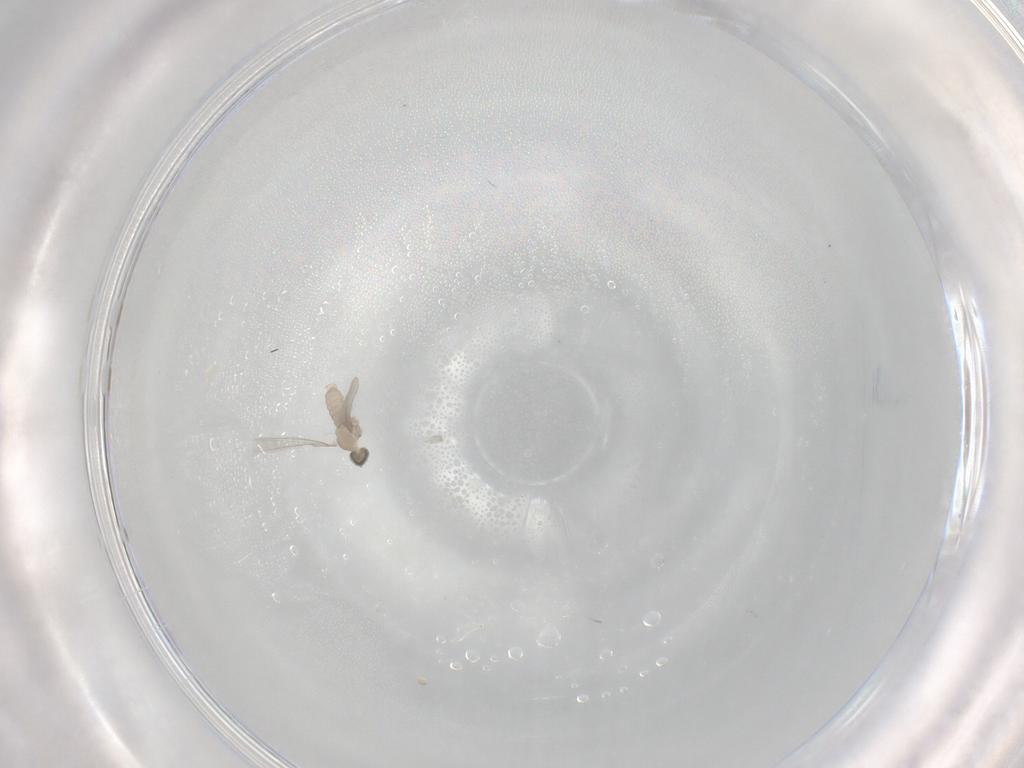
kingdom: Animalia
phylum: Arthropoda
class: Insecta
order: Diptera
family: Cecidomyiidae
